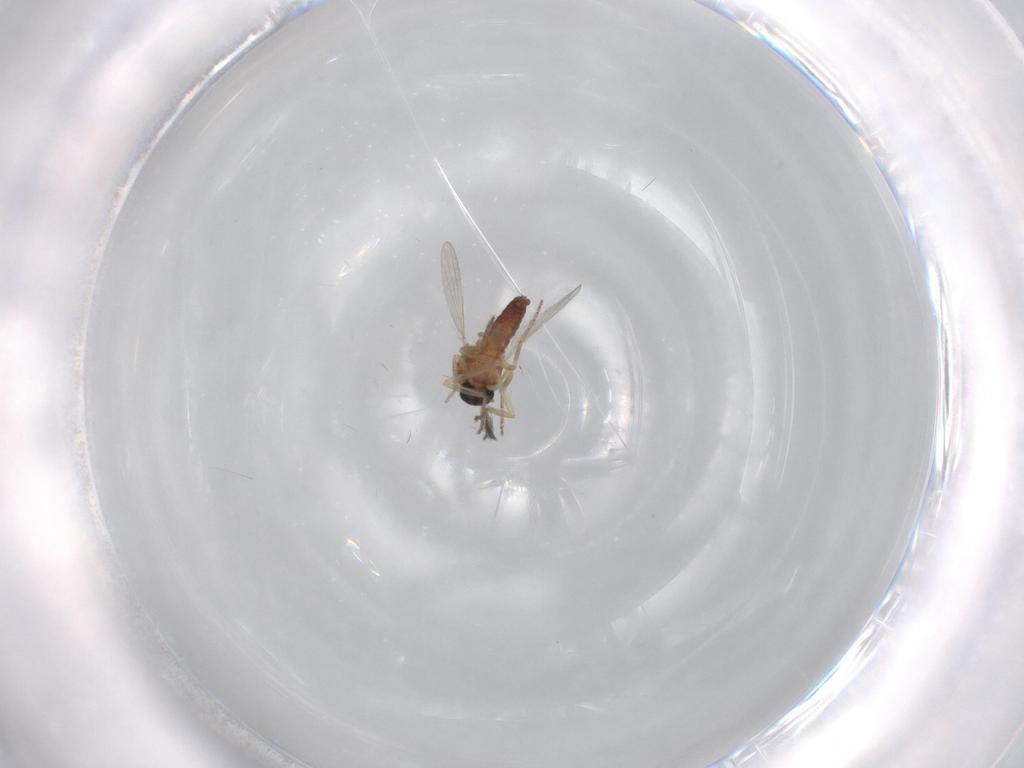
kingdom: Animalia
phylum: Arthropoda
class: Insecta
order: Diptera
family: Ceratopogonidae
